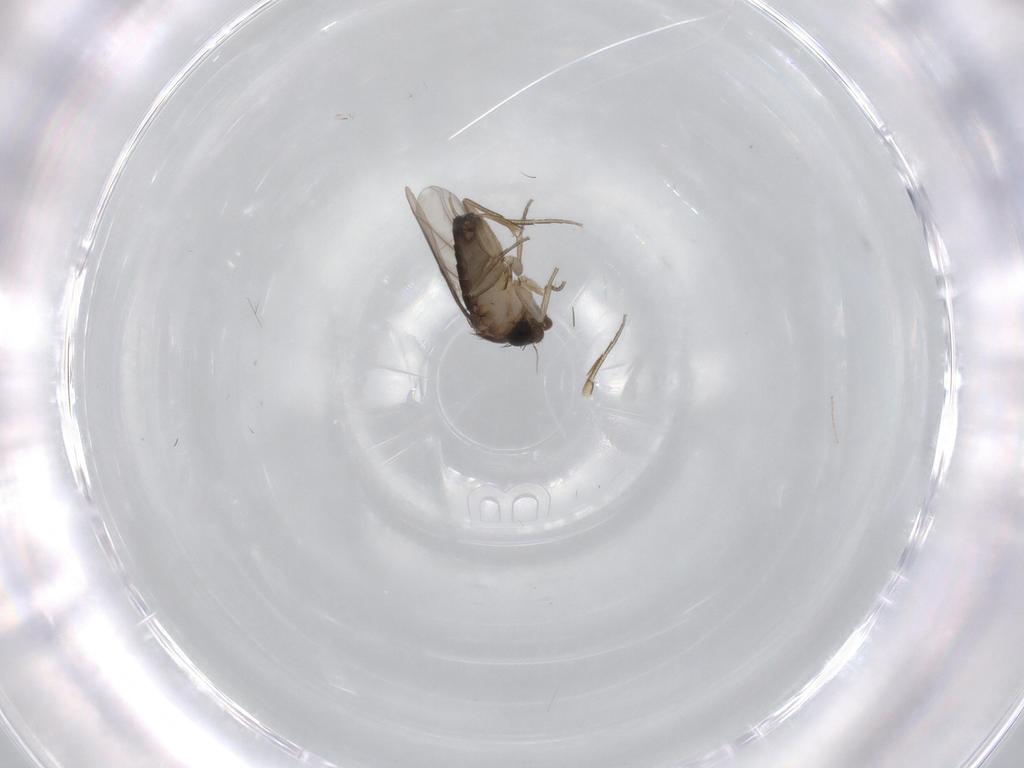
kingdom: Animalia
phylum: Arthropoda
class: Insecta
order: Diptera
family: Phoridae
